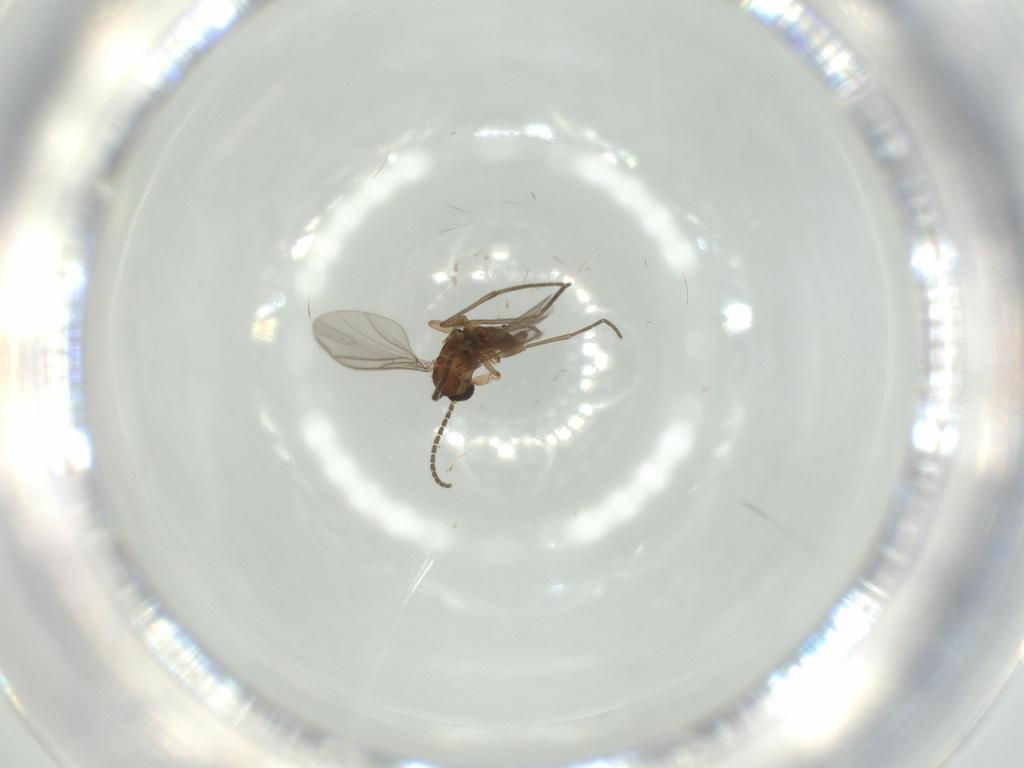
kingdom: Animalia
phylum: Arthropoda
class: Insecta
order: Diptera
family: Sciaridae
